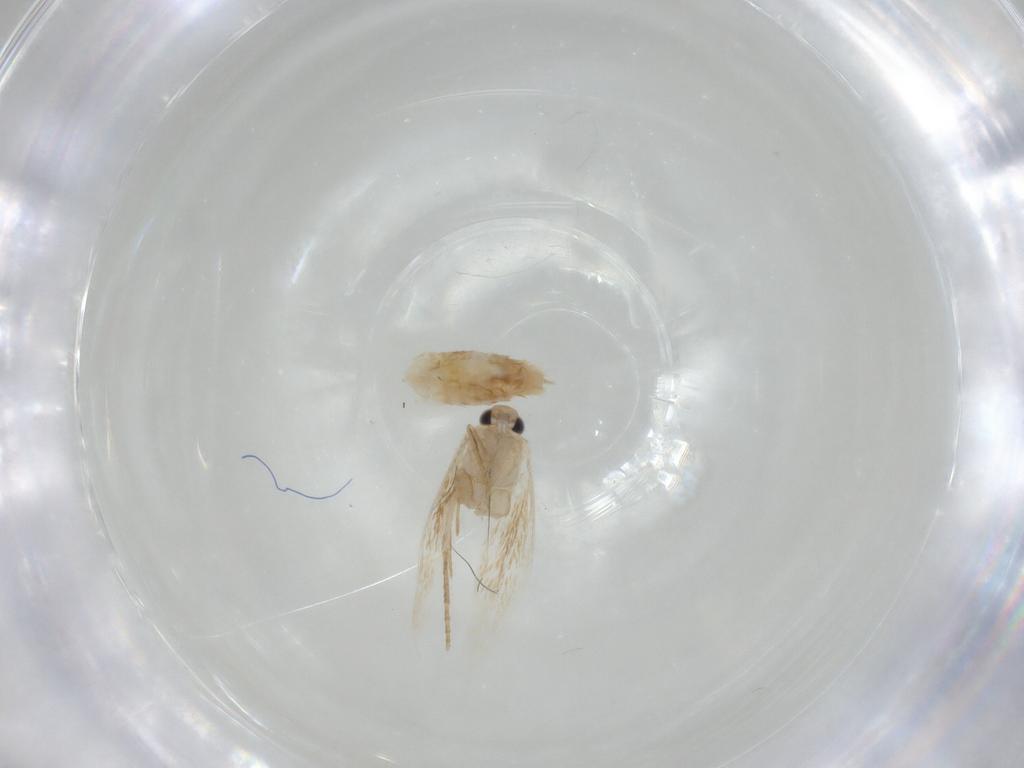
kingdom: Animalia
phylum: Arthropoda
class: Insecta
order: Lepidoptera
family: Bucculatricidae
